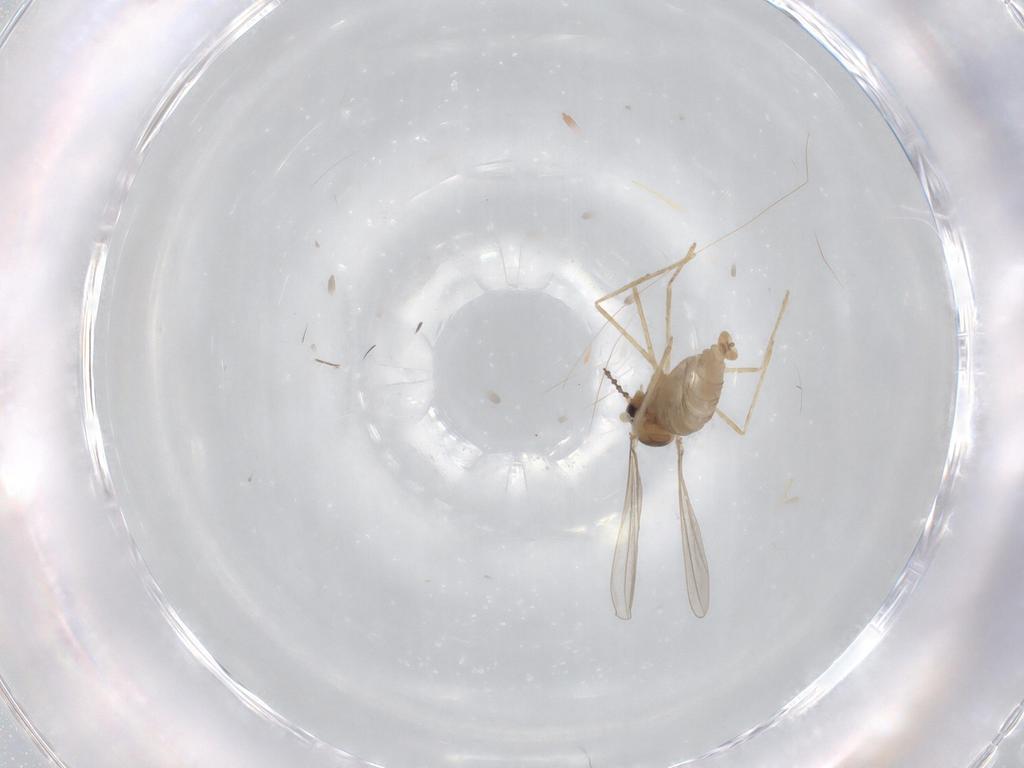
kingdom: Animalia
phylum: Arthropoda
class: Insecta
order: Diptera
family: Cecidomyiidae
